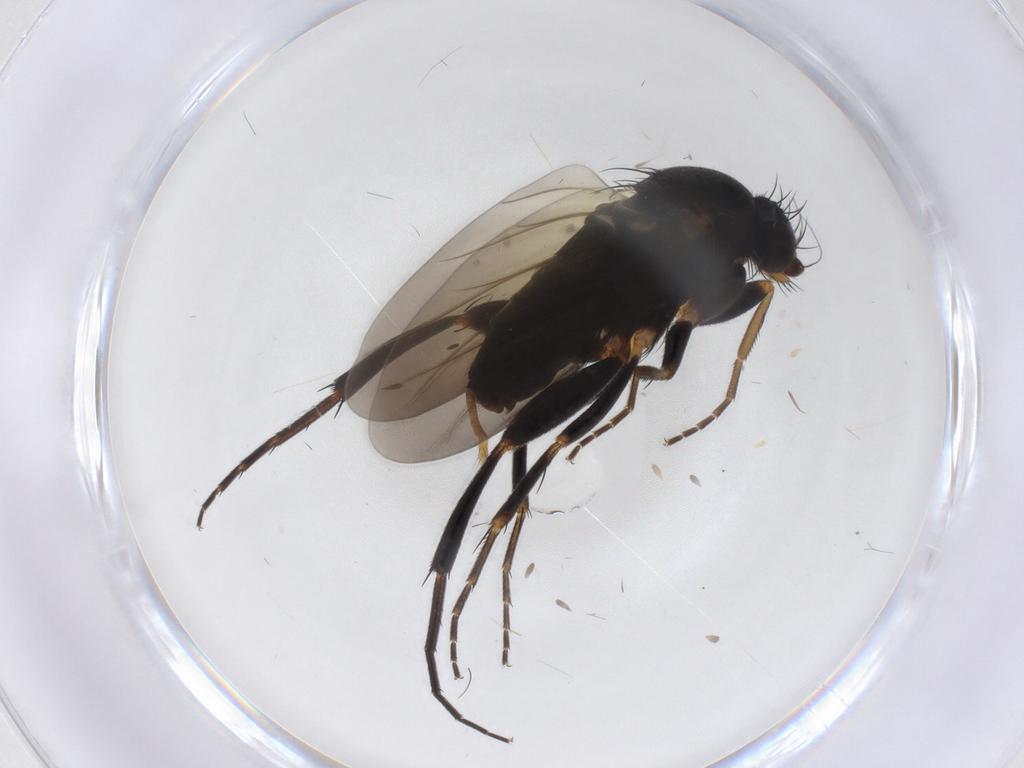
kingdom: Animalia
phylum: Arthropoda
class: Insecta
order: Diptera
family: Phoridae
